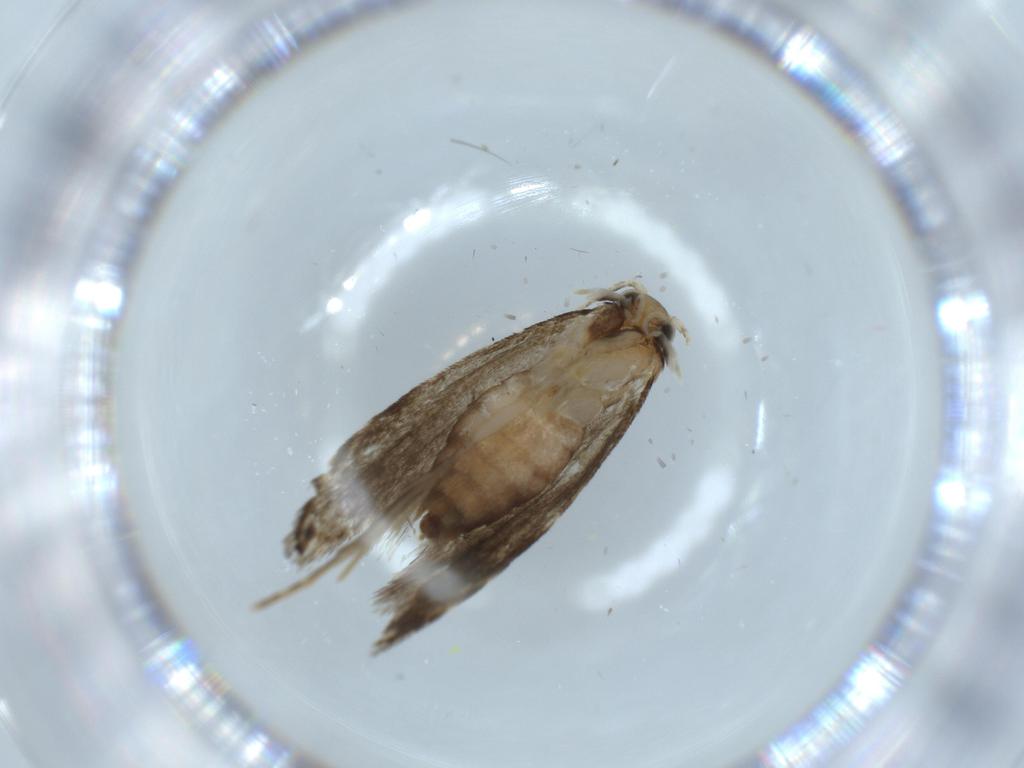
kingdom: Animalia
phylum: Arthropoda
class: Insecta
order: Lepidoptera
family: Tineidae
